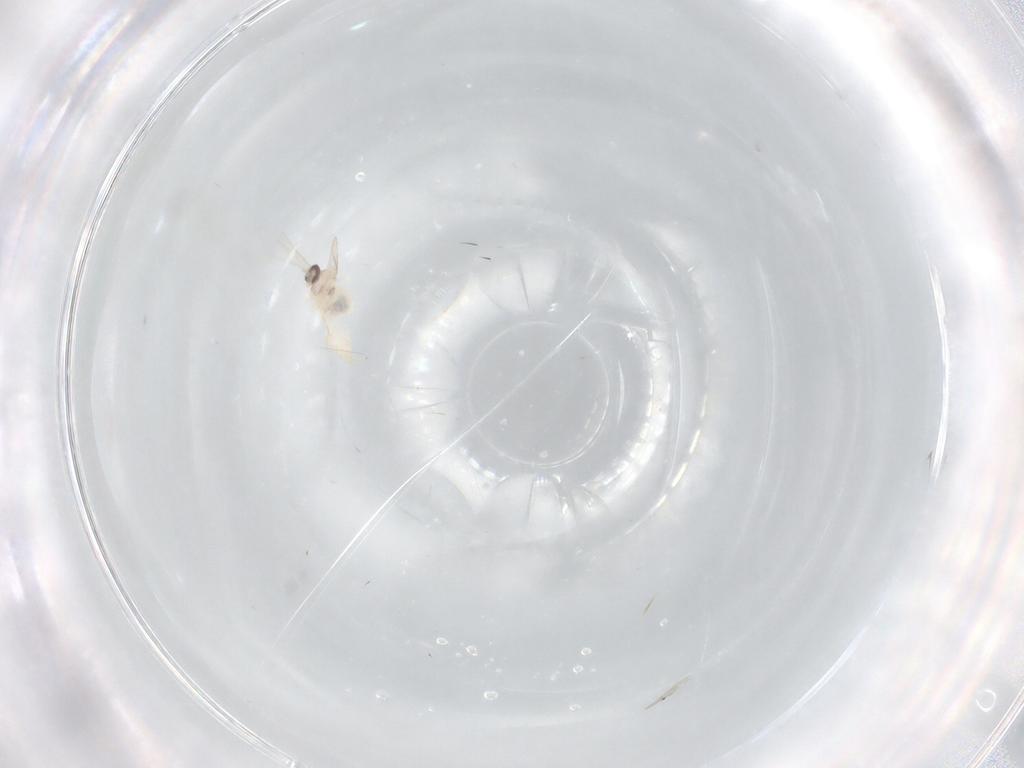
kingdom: Animalia
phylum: Arthropoda
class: Insecta
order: Diptera
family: Cecidomyiidae
